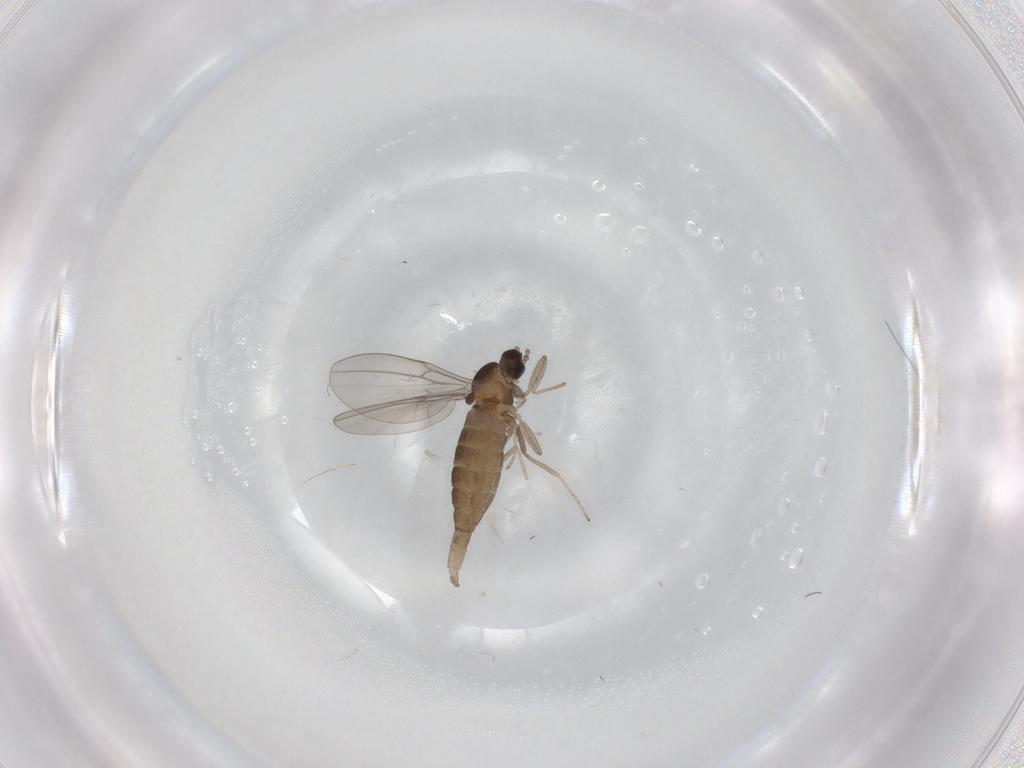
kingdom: Animalia
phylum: Arthropoda
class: Insecta
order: Diptera
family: Cecidomyiidae
